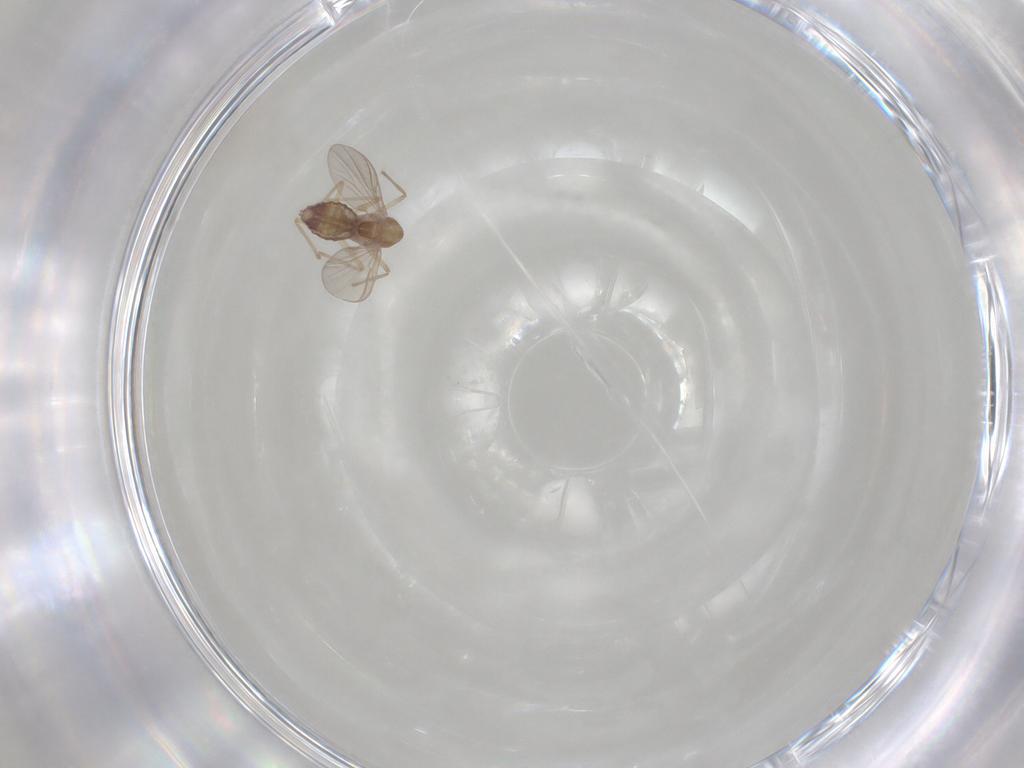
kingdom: Animalia
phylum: Arthropoda
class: Insecta
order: Diptera
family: Chironomidae
